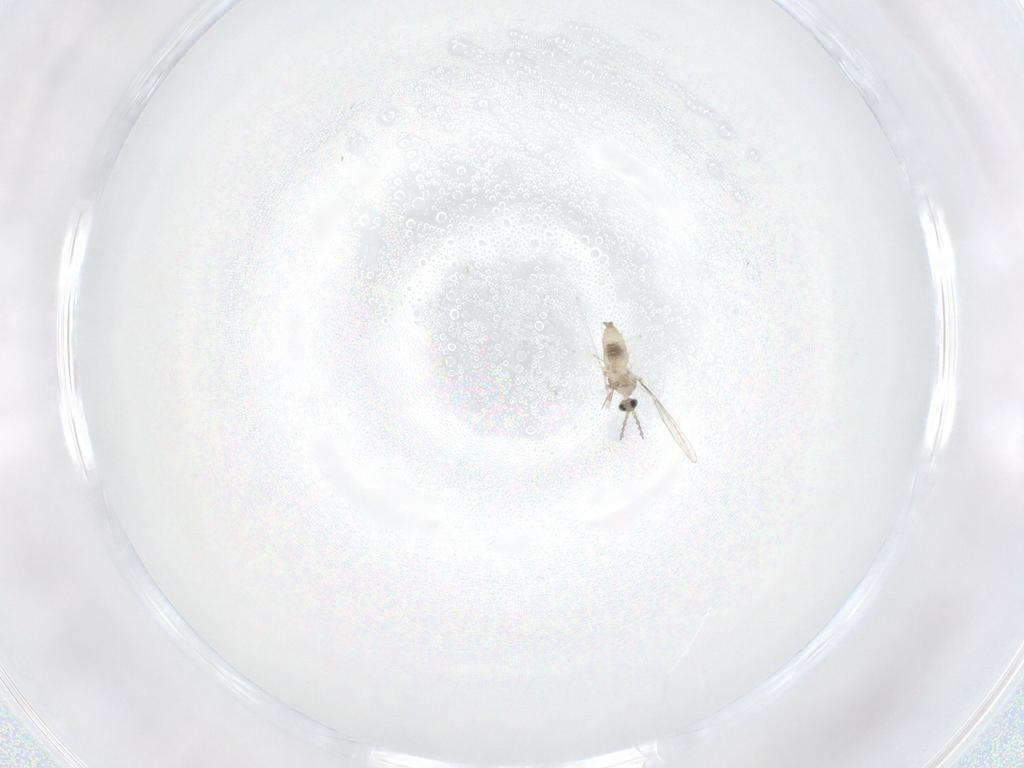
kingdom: Animalia
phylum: Arthropoda
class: Insecta
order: Diptera
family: Cecidomyiidae
